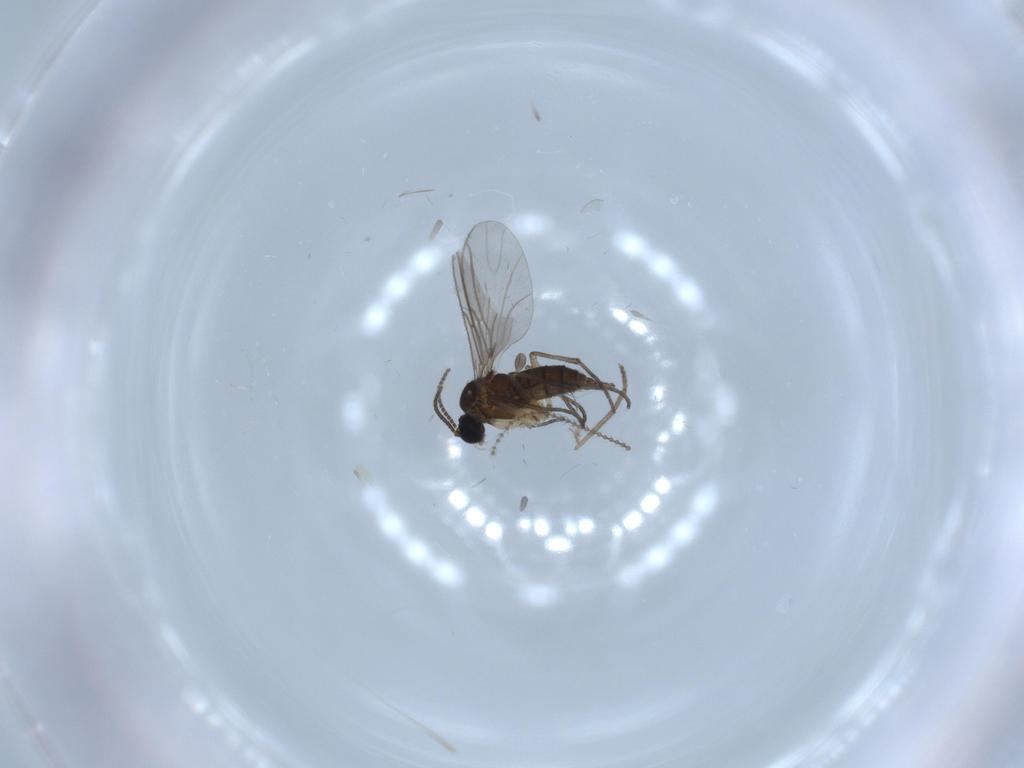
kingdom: Animalia
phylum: Arthropoda
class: Insecta
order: Diptera
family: Sciaridae
